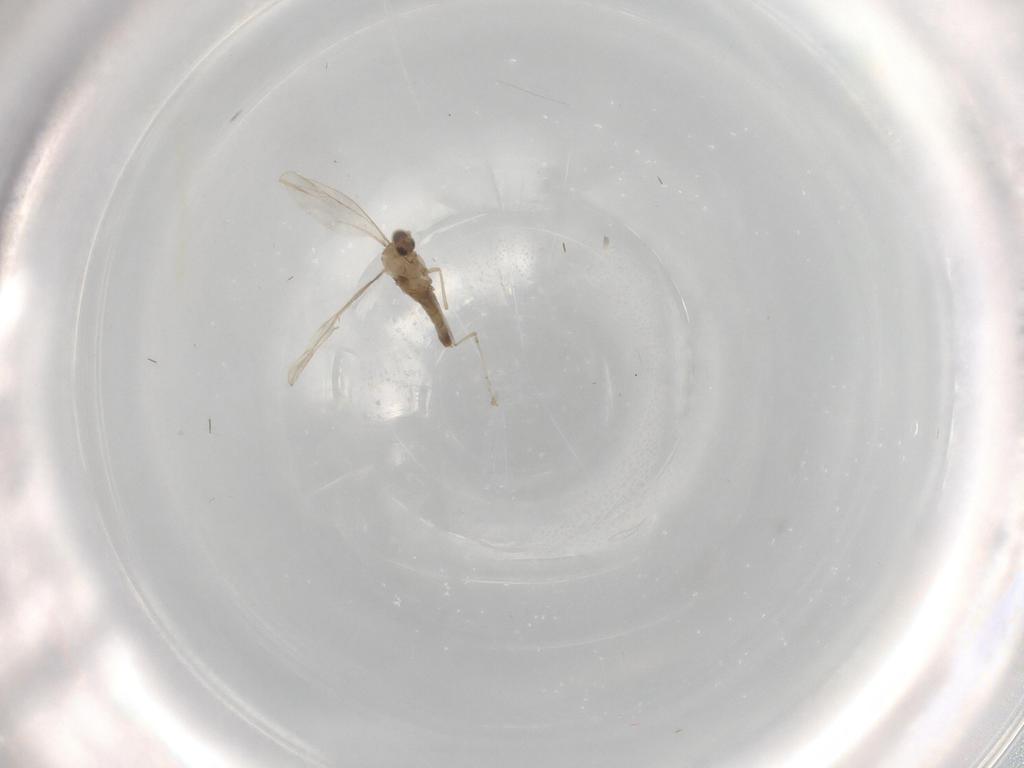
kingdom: Animalia
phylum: Arthropoda
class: Insecta
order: Diptera
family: Cecidomyiidae
